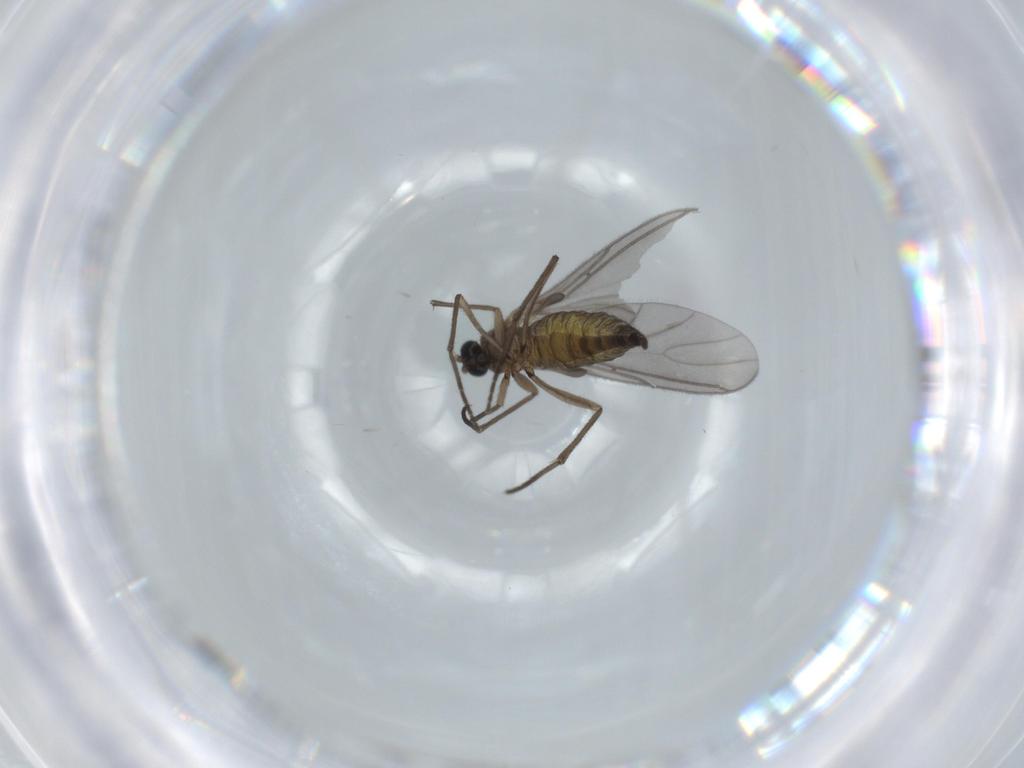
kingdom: Animalia
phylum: Arthropoda
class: Insecta
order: Diptera
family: Sciaridae
